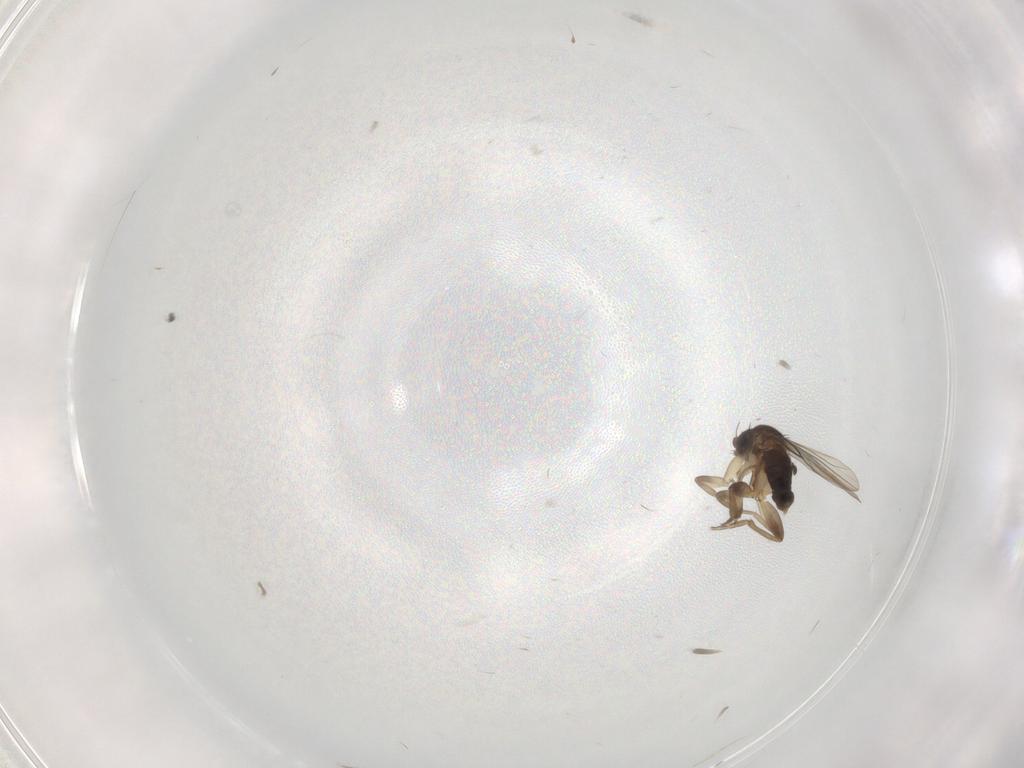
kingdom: Animalia
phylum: Arthropoda
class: Insecta
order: Diptera
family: Phoridae
